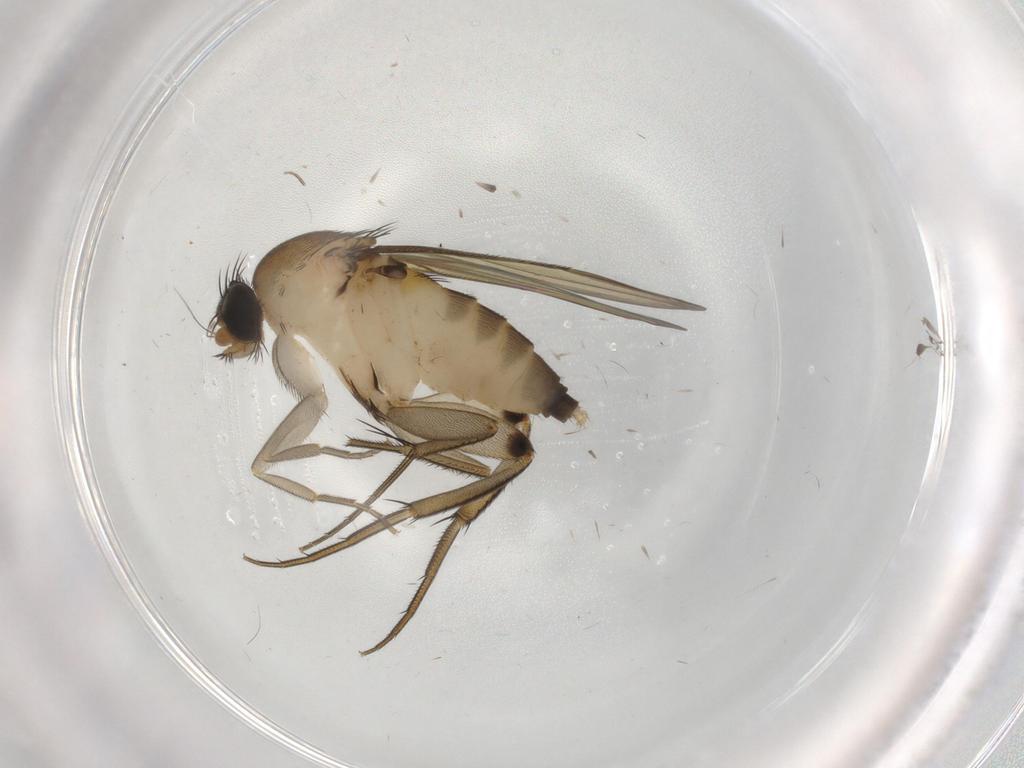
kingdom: Animalia
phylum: Arthropoda
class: Insecta
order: Diptera
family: Phoridae
